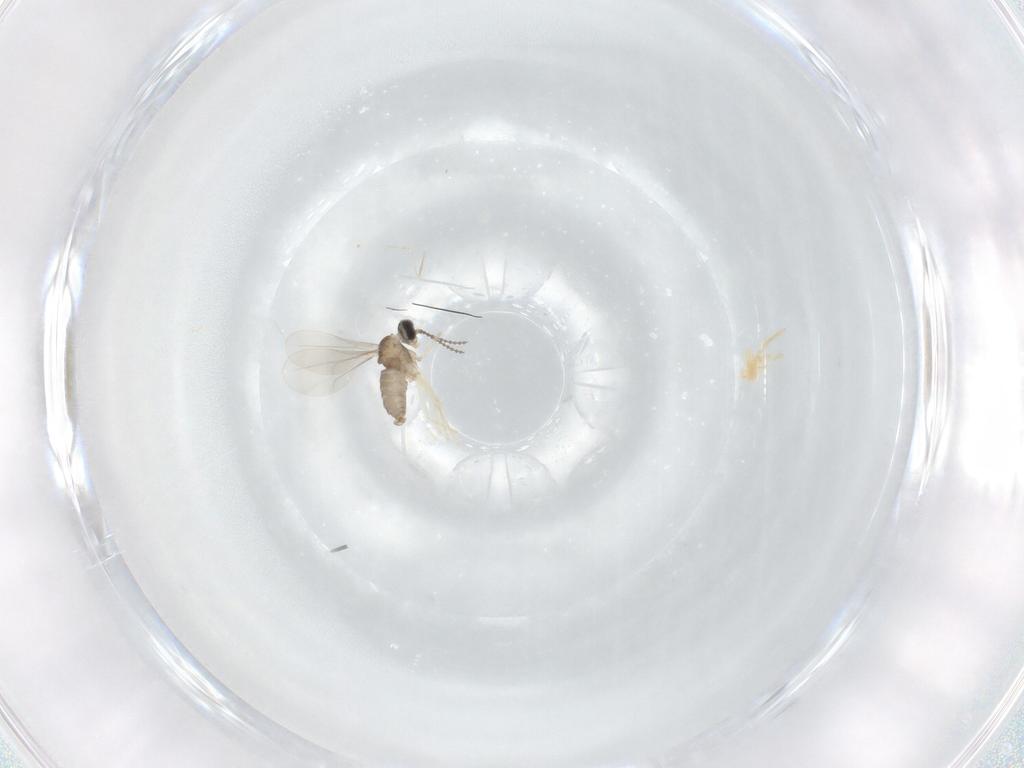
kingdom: Animalia
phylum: Arthropoda
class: Insecta
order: Diptera
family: Cecidomyiidae
